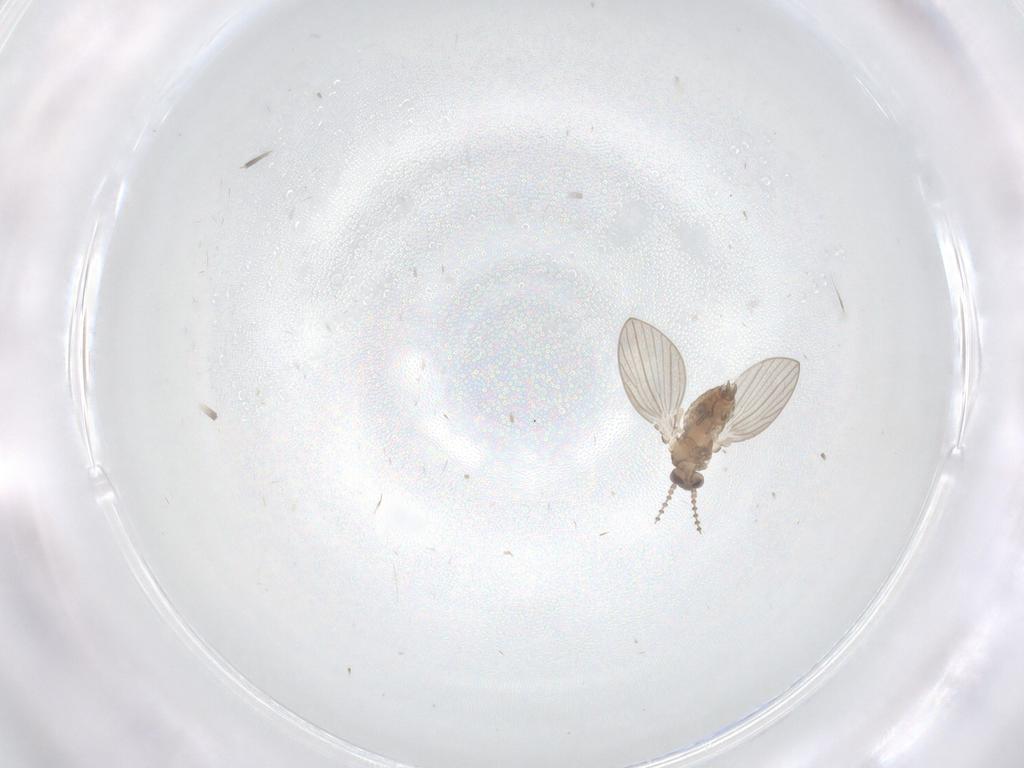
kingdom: Animalia
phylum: Arthropoda
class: Insecta
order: Diptera
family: Psychodidae
